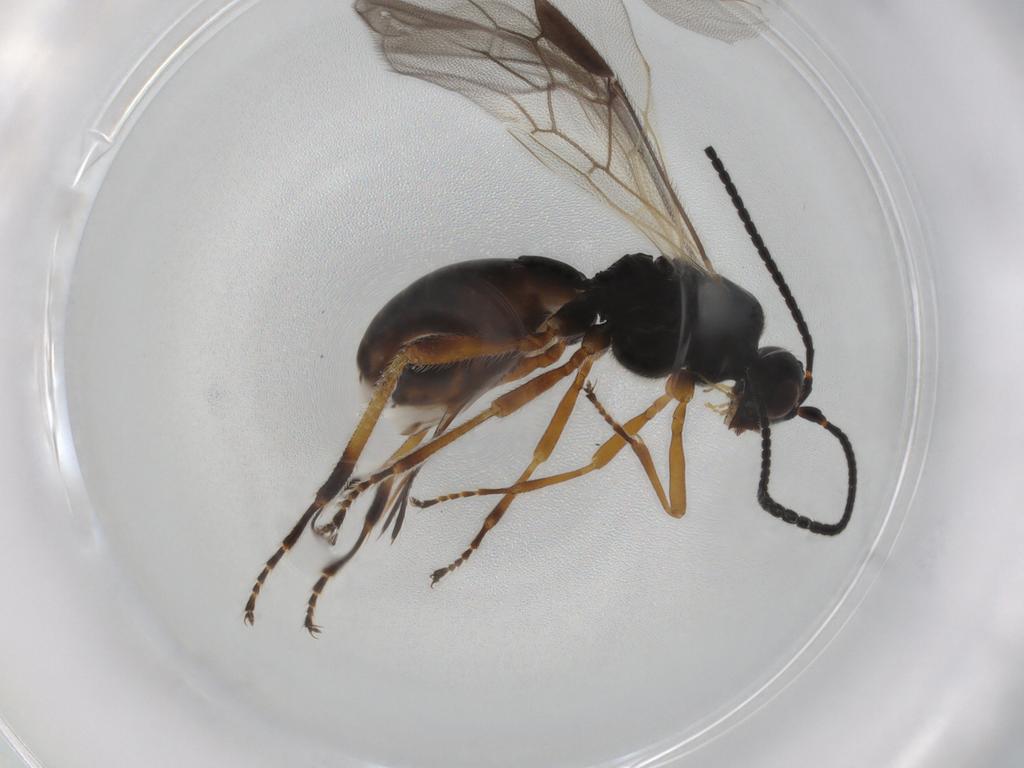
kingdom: Animalia
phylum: Arthropoda
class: Insecta
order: Hymenoptera
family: Braconidae
